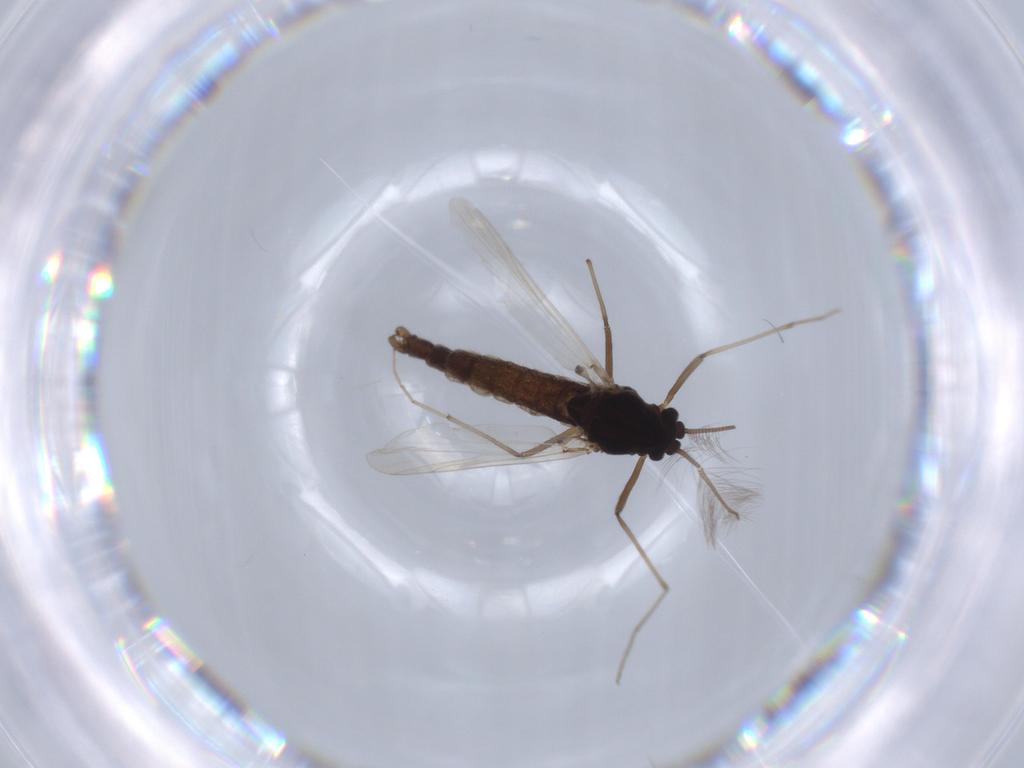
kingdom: Animalia
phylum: Arthropoda
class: Insecta
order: Diptera
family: Chironomidae
